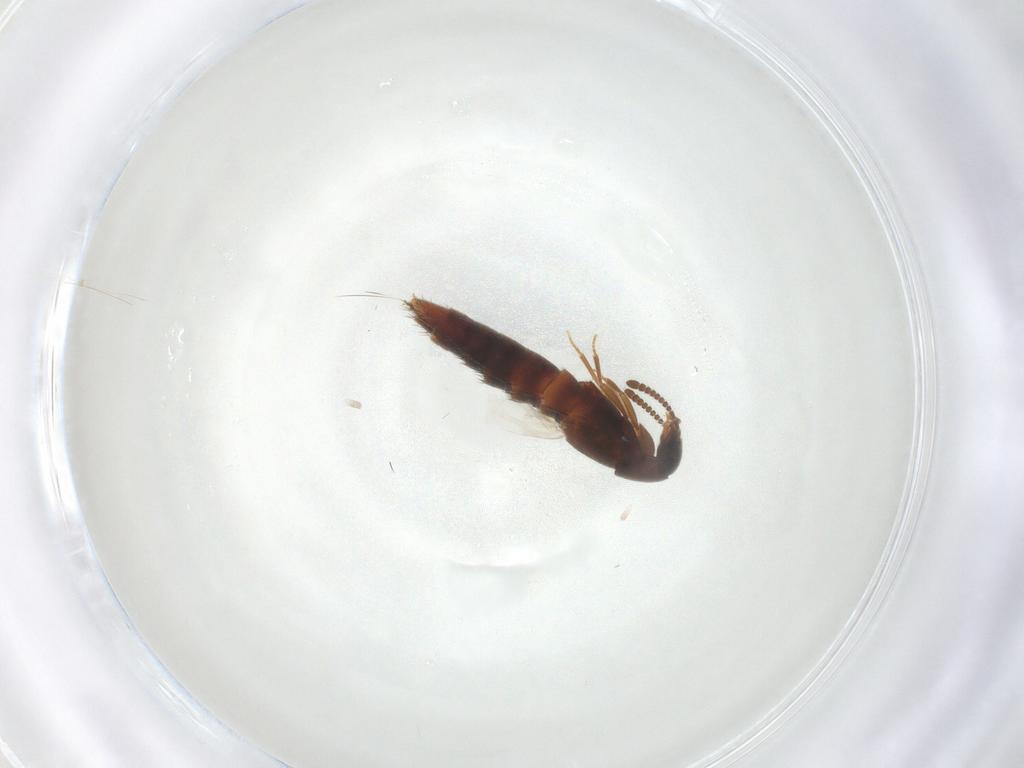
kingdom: Animalia
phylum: Arthropoda
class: Insecta
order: Coleoptera
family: Staphylinidae
